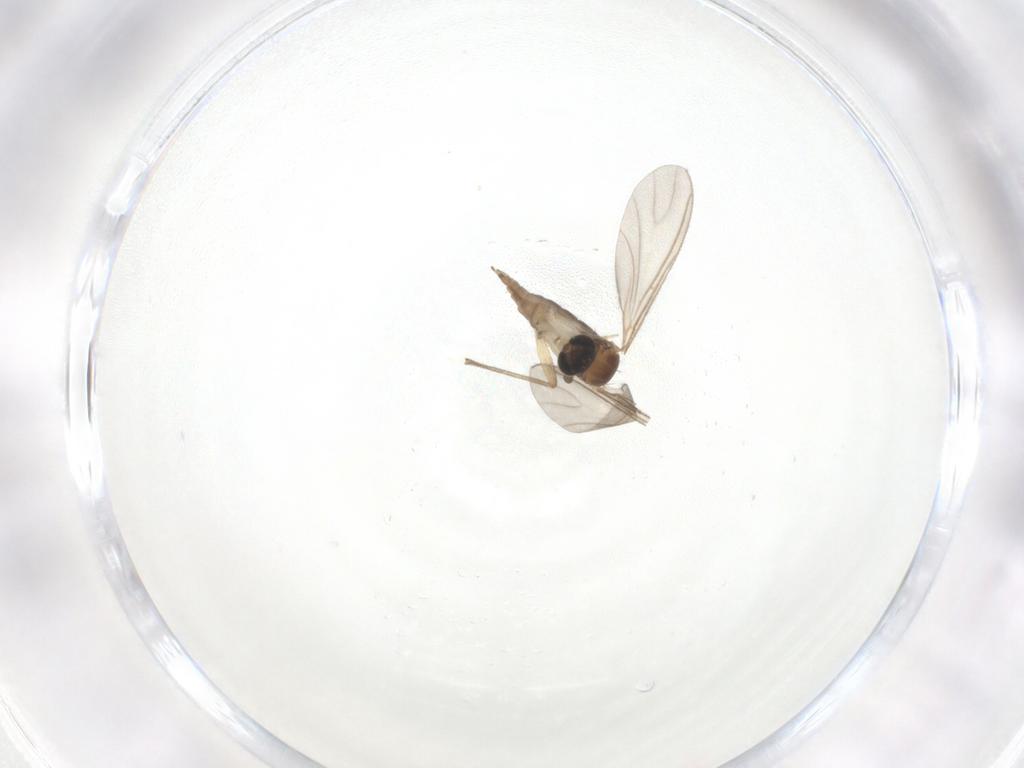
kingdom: Animalia
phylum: Arthropoda
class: Insecta
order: Diptera
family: Sciaridae
